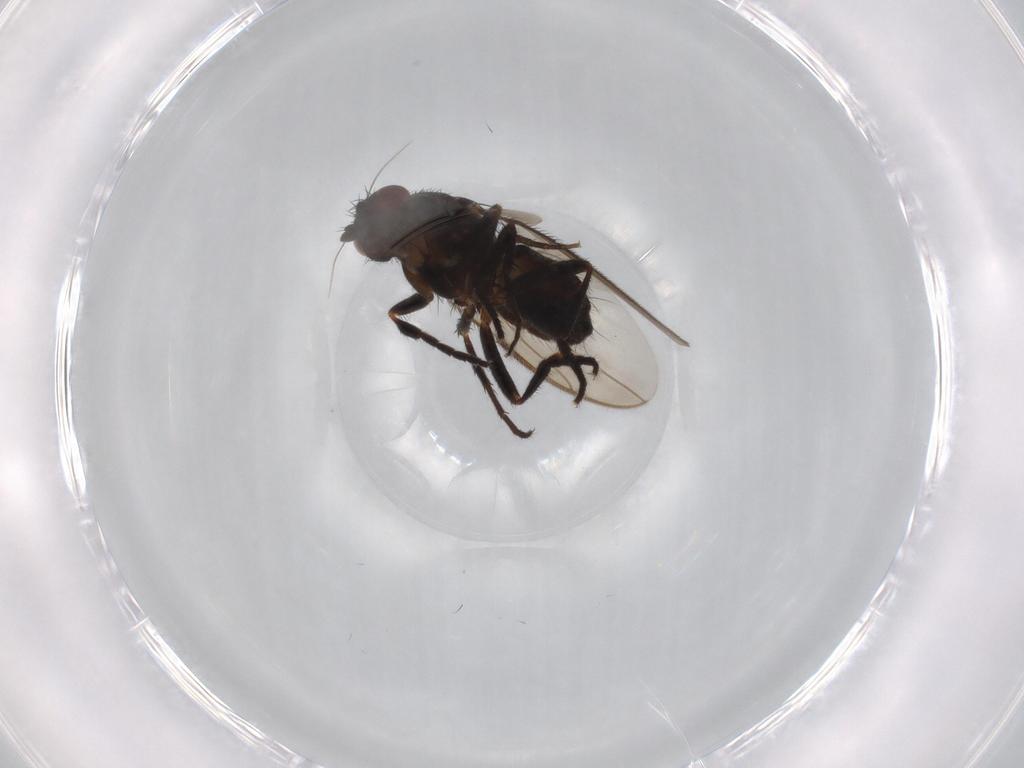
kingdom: Animalia
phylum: Arthropoda
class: Insecta
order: Diptera
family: Sphaeroceridae
